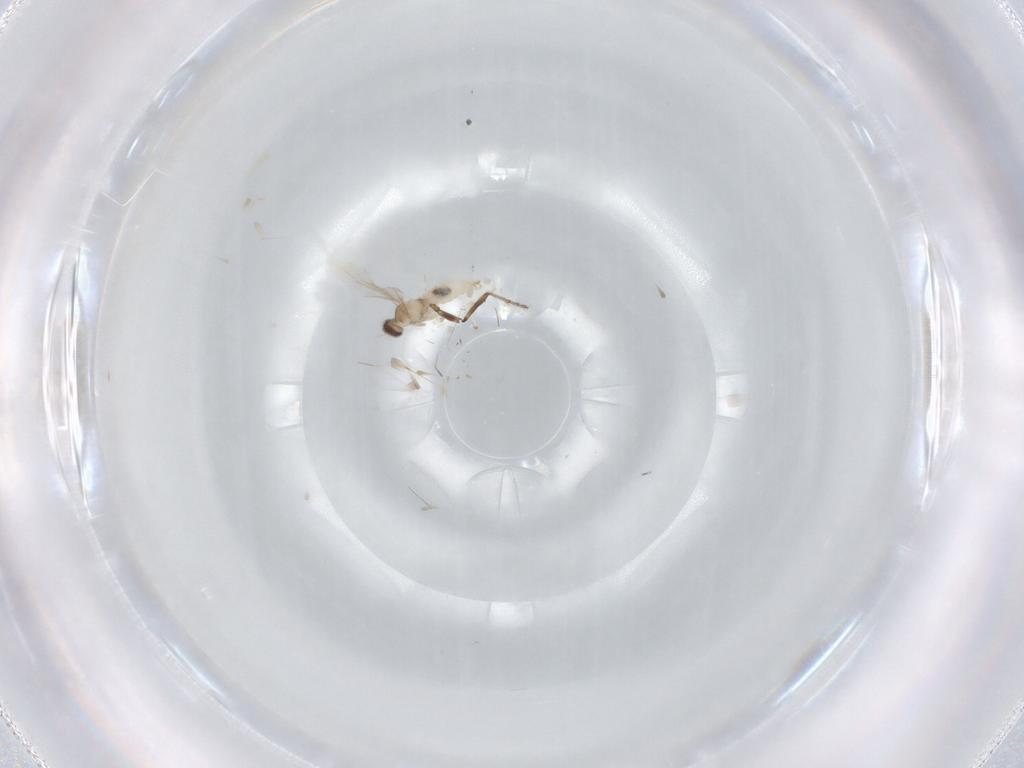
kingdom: Animalia
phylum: Arthropoda
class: Insecta
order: Diptera
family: Cecidomyiidae
